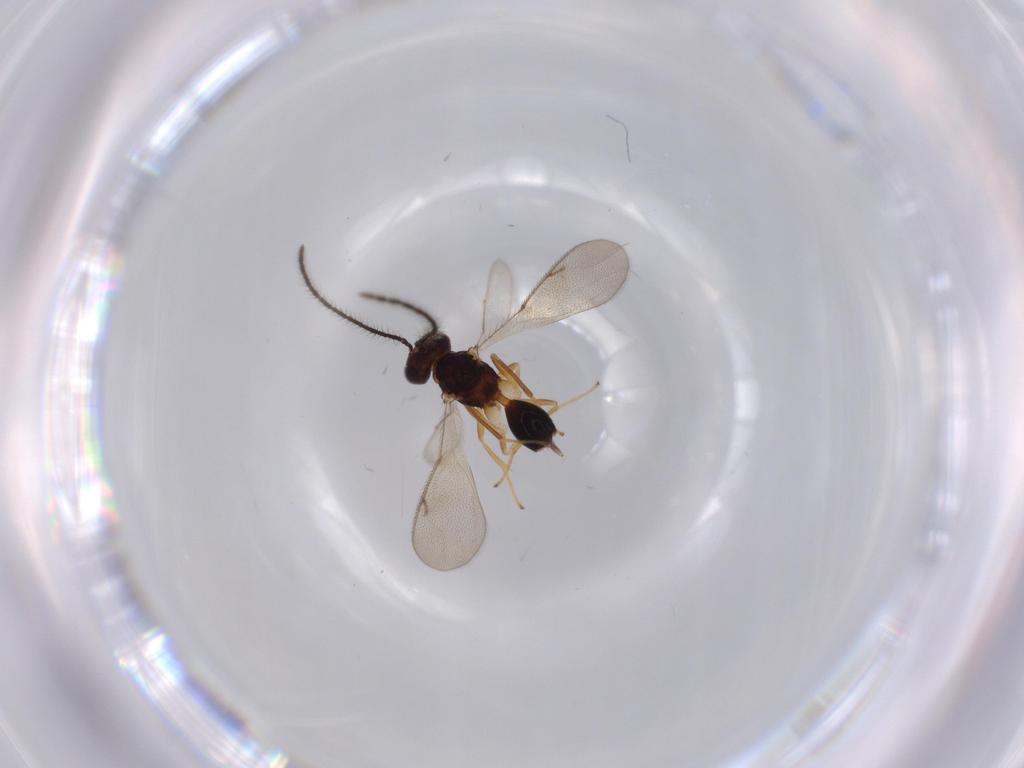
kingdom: Animalia
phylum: Arthropoda
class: Insecta
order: Hymenoptera
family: Diparidae
